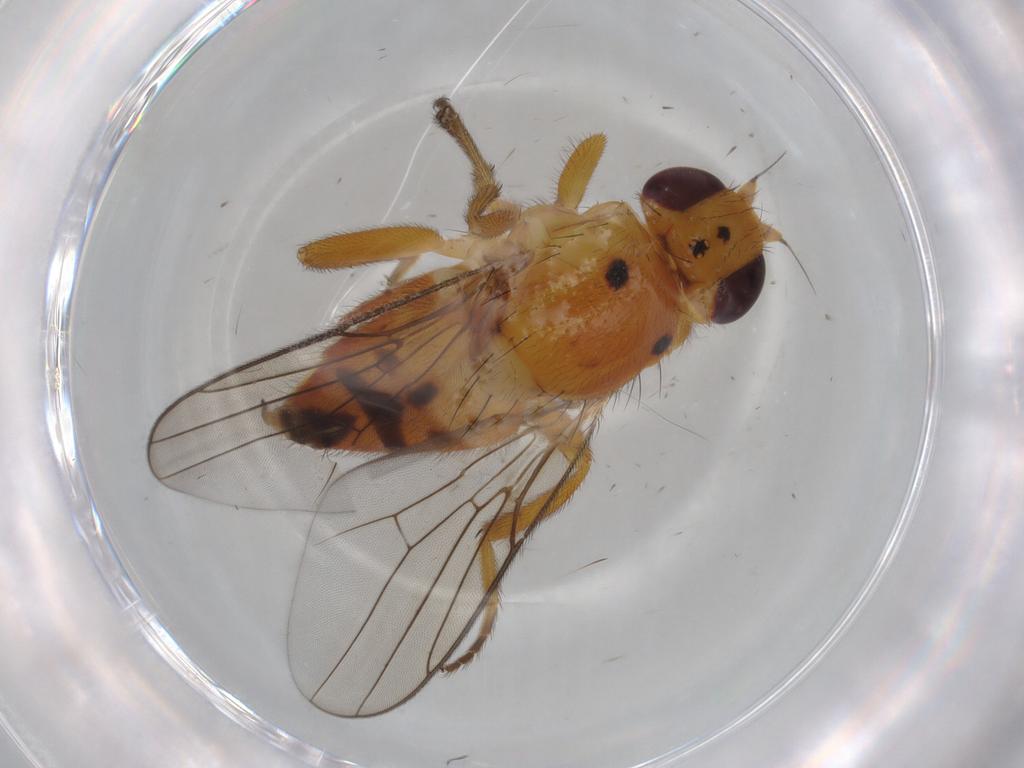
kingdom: Animalia
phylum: Arthropoda
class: Insecta
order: Diptera
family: Chloropidae
